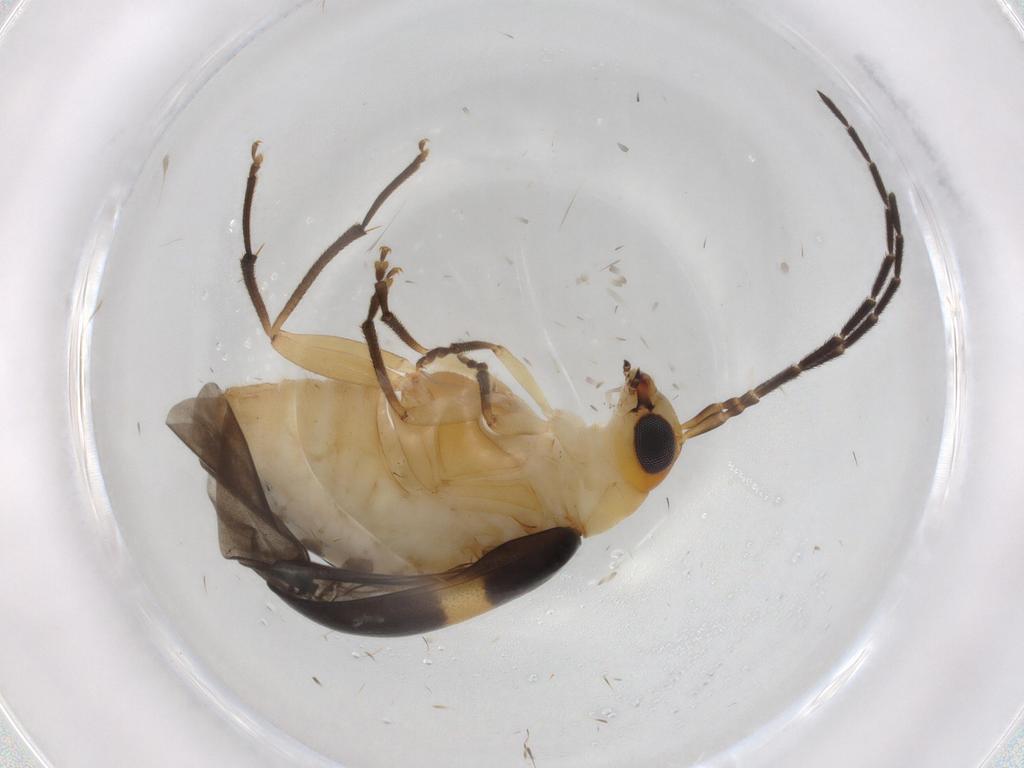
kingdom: Animalia
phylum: Arthropoda
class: Insecta
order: Coleoptera
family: Chrysomelidae
